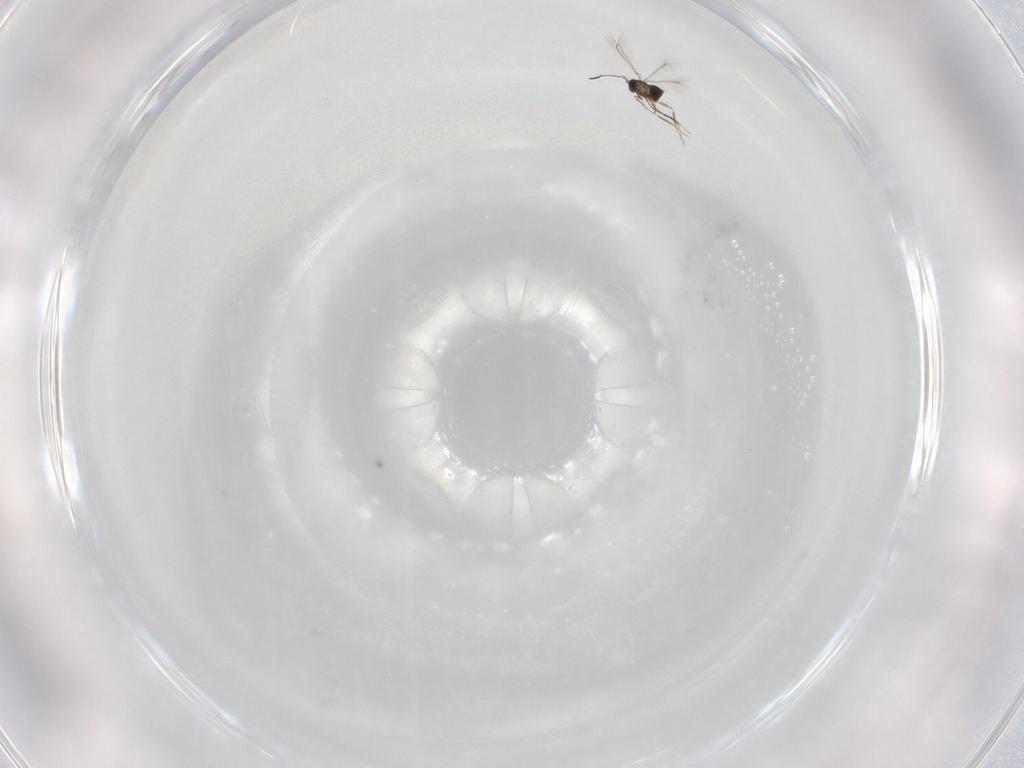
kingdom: Animalia
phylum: Arthropoda
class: Insecta
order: Hymenoptera
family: Mymaridae
